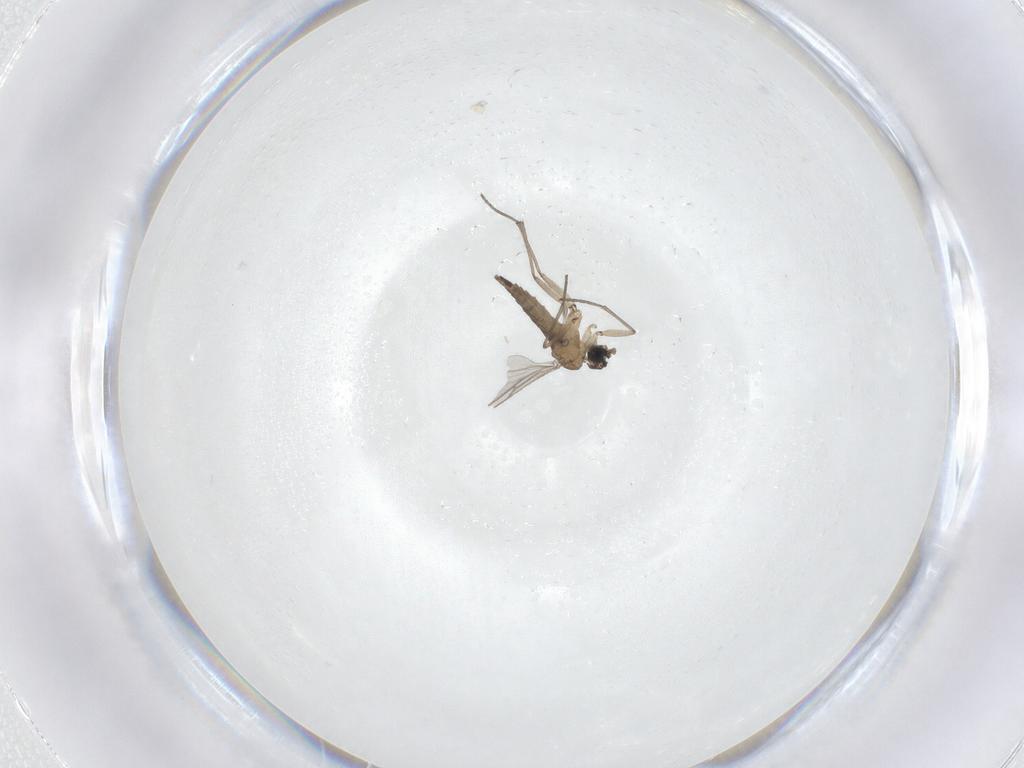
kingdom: Animalia
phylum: Arthropoda
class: Insecta
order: Diptera
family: Sciaridae
